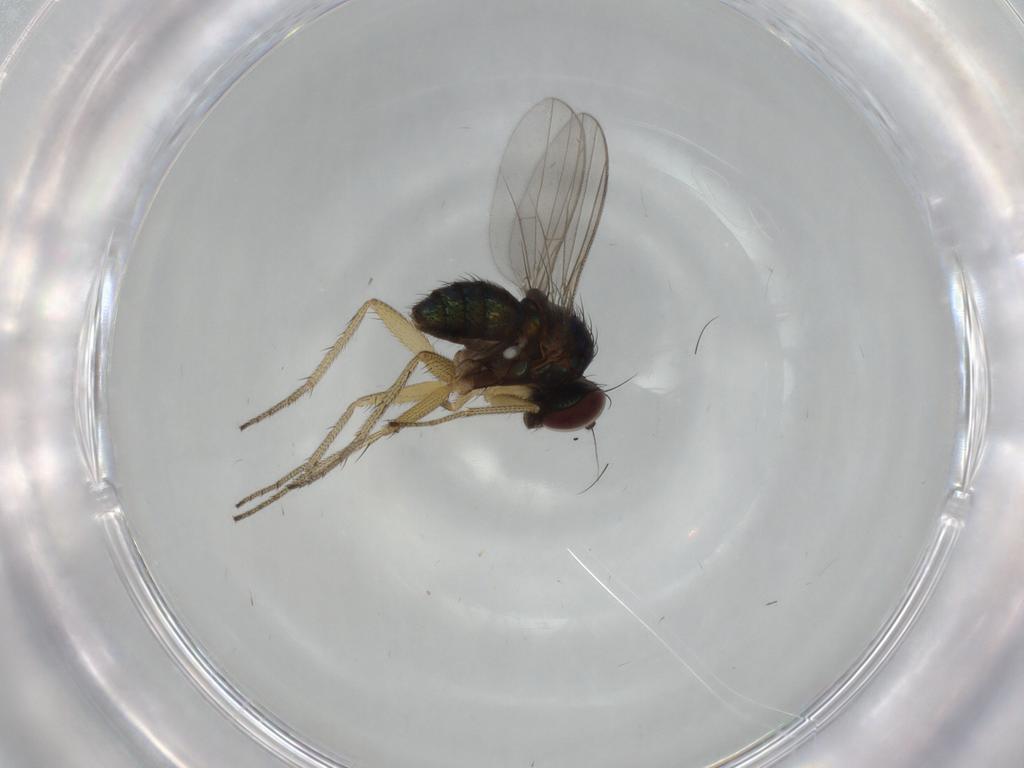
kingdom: Animalia
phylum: Arthropoda
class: Insecta
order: Diptera
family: Dolichopodidae
